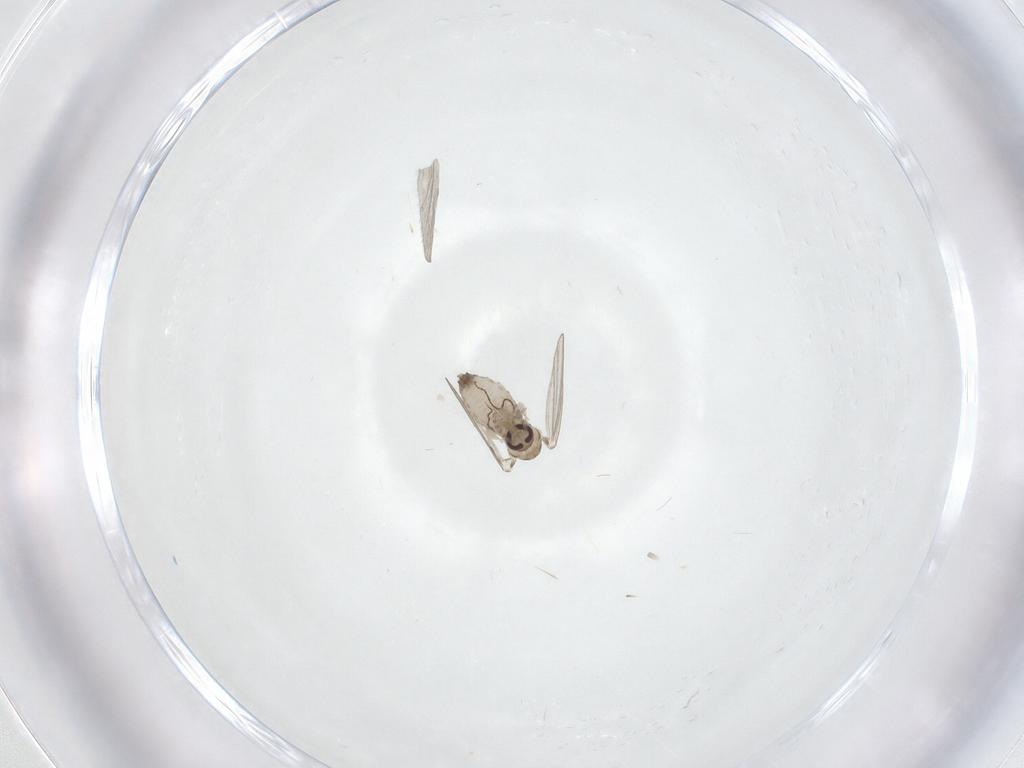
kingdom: Animalia
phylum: Arthropoda
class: Insecta
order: Diptera
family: Psychodidae
